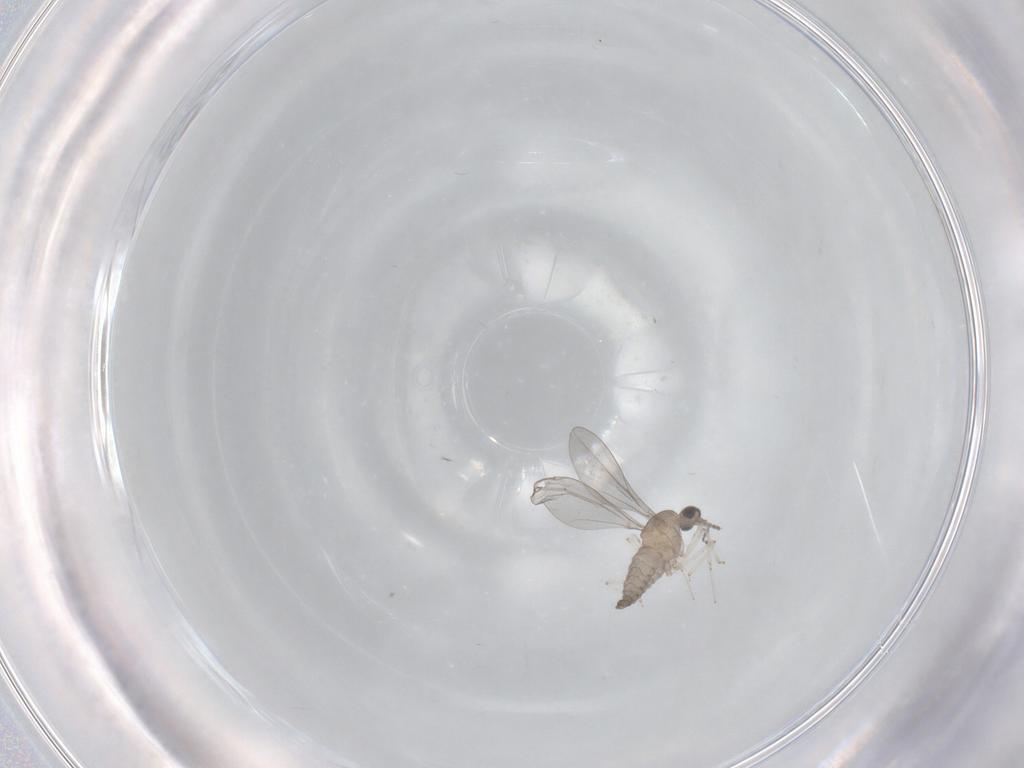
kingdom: Animalia
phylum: Arthropoda
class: Insecta
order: Diptera
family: Cecidomyiidae
